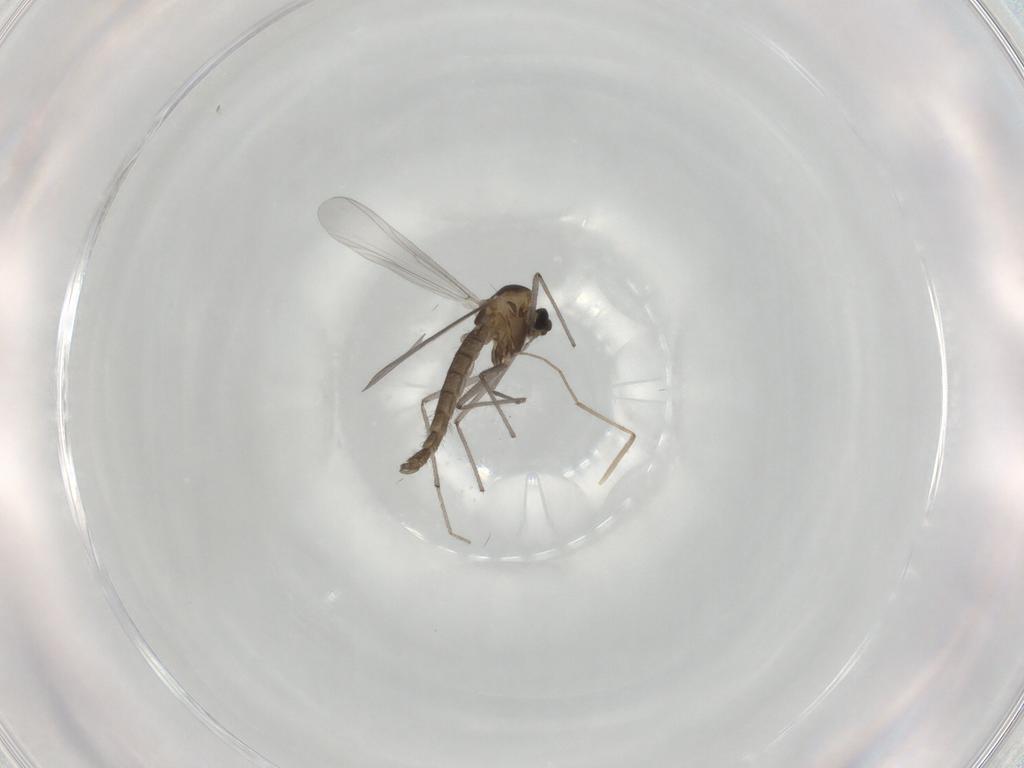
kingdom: Animalia
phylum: Arthropoda
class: Insecta
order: Diptera
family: Chironomidae
